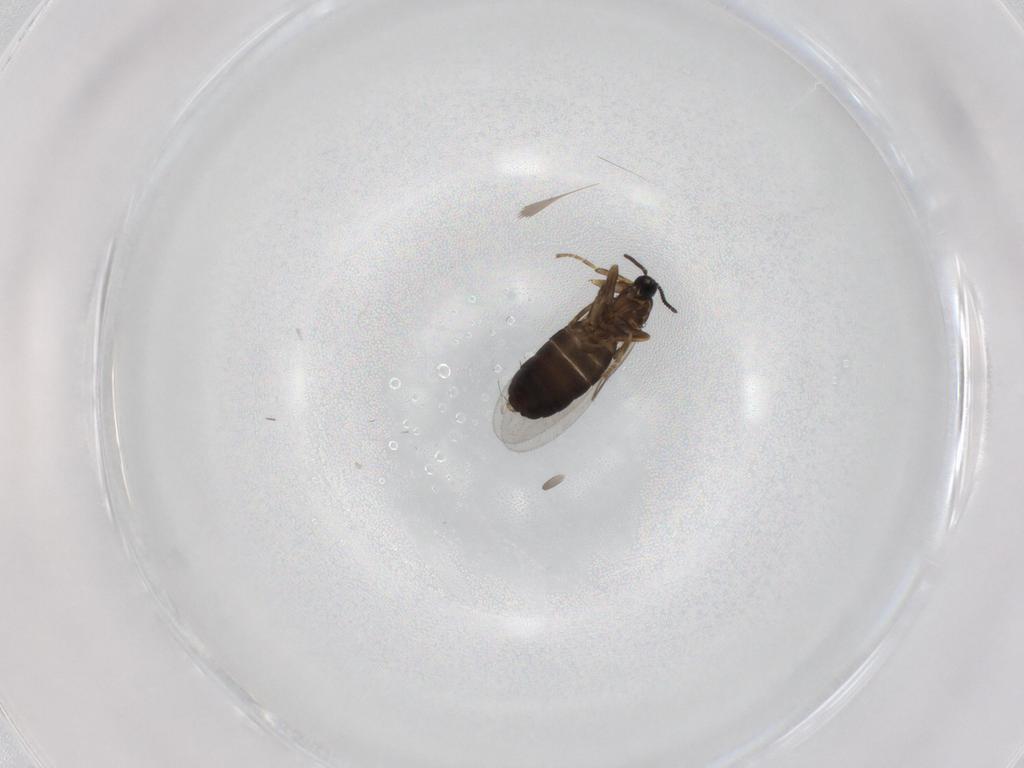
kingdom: Animalia
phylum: Arthropoda
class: Insecta
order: Diptera
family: Scatopsidae
